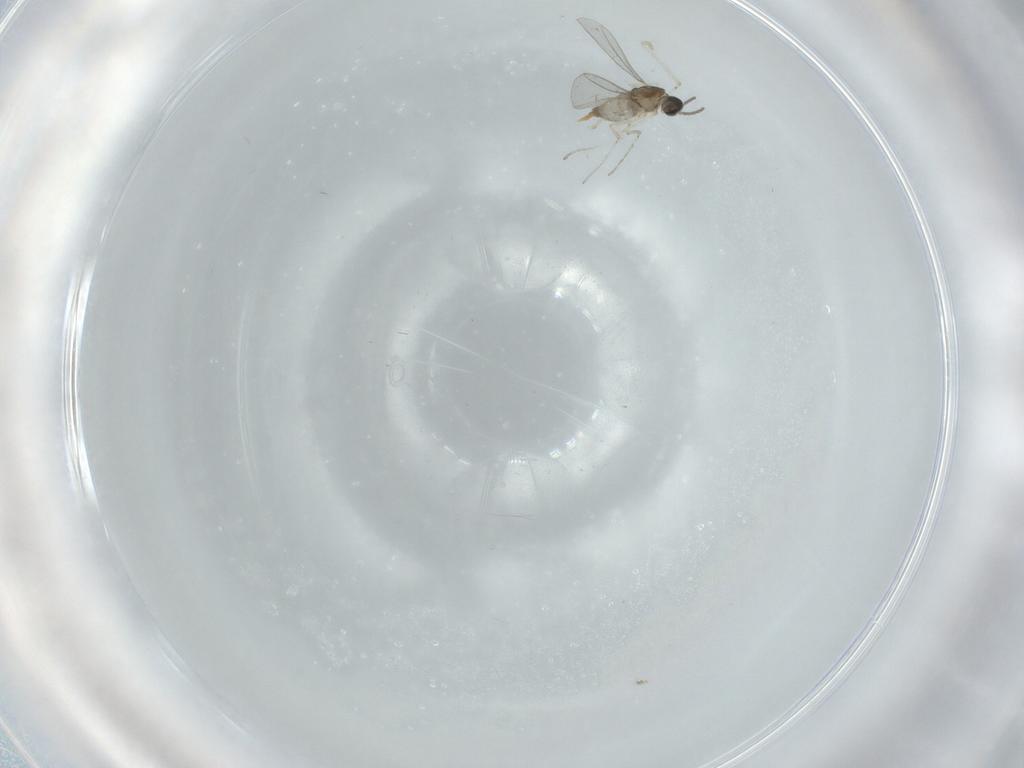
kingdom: Animalia
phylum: Arthropoda
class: Insecta
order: Diptera
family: Cecidomyiidae
